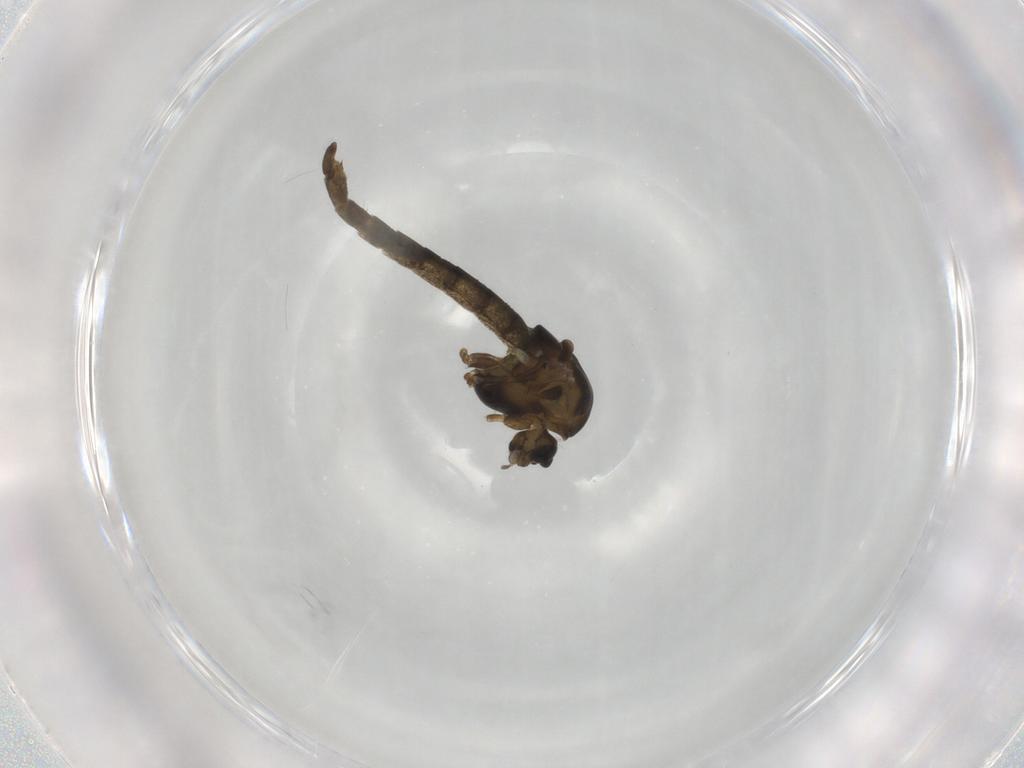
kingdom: Animalia
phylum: Arthropoda
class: Insecta
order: Diptera
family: Chironomidae
